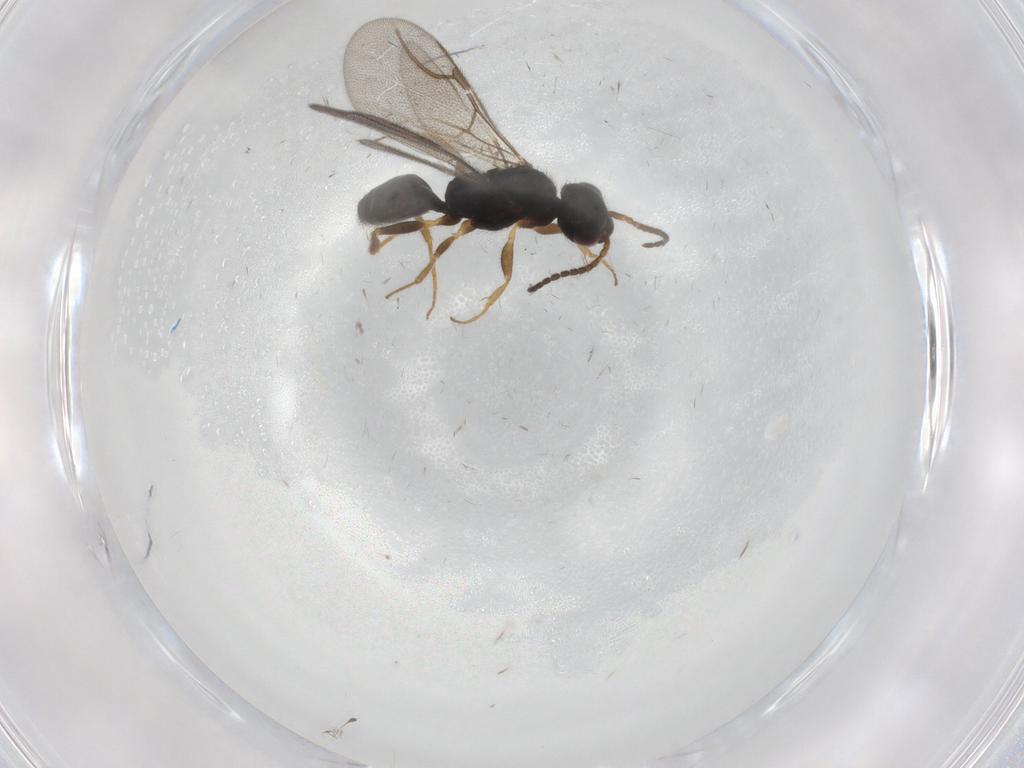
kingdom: Animalia
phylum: Arthropoda
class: Insecta
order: Hymenoptera
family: Bethylidae
